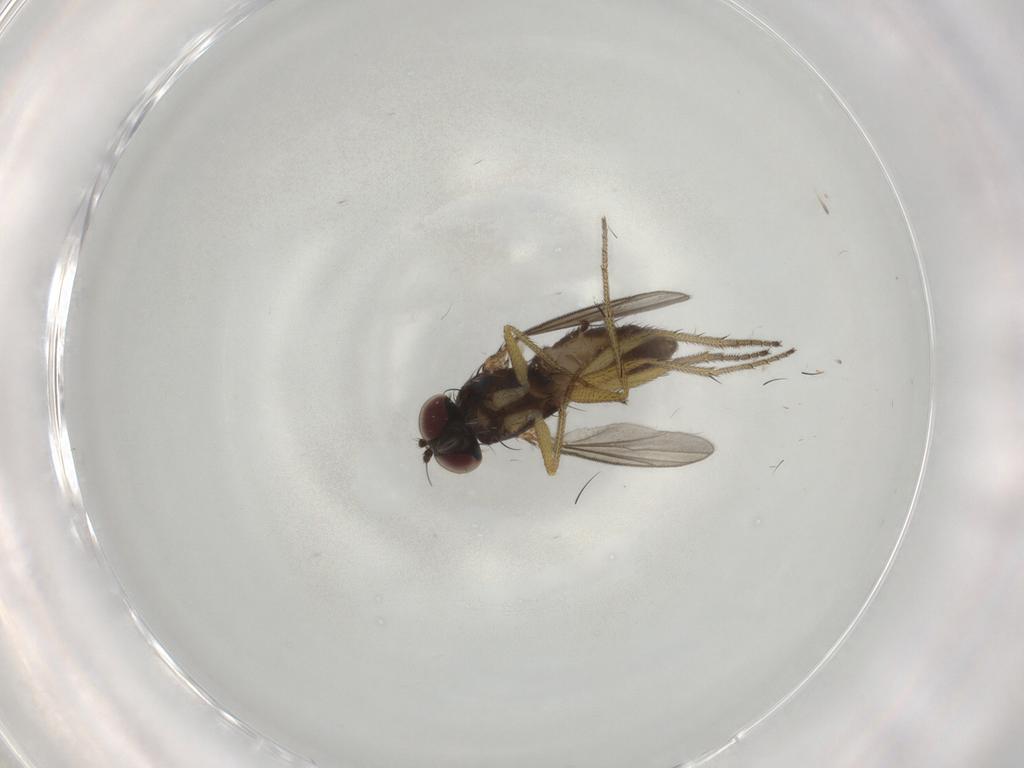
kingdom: Animalia
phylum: Arthropoda
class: Insecta
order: Diptera
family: Dolichopodidae
